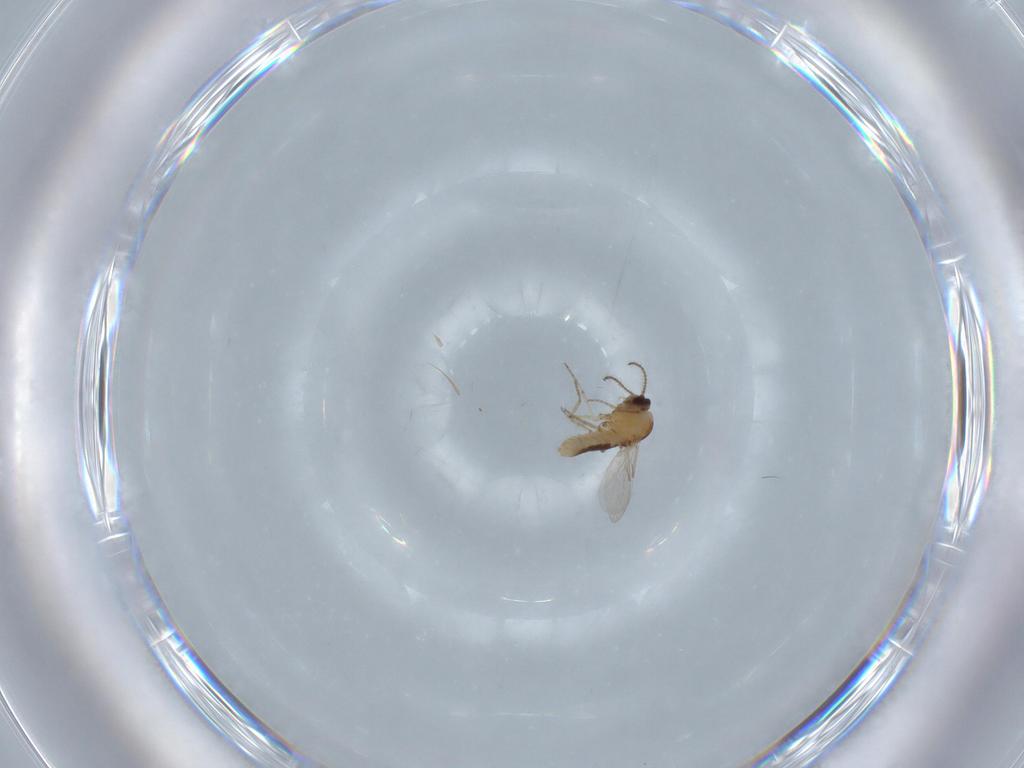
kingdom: Animalia
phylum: Arthropoda
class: Insecta
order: Diptera
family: Ceratopogonidae
